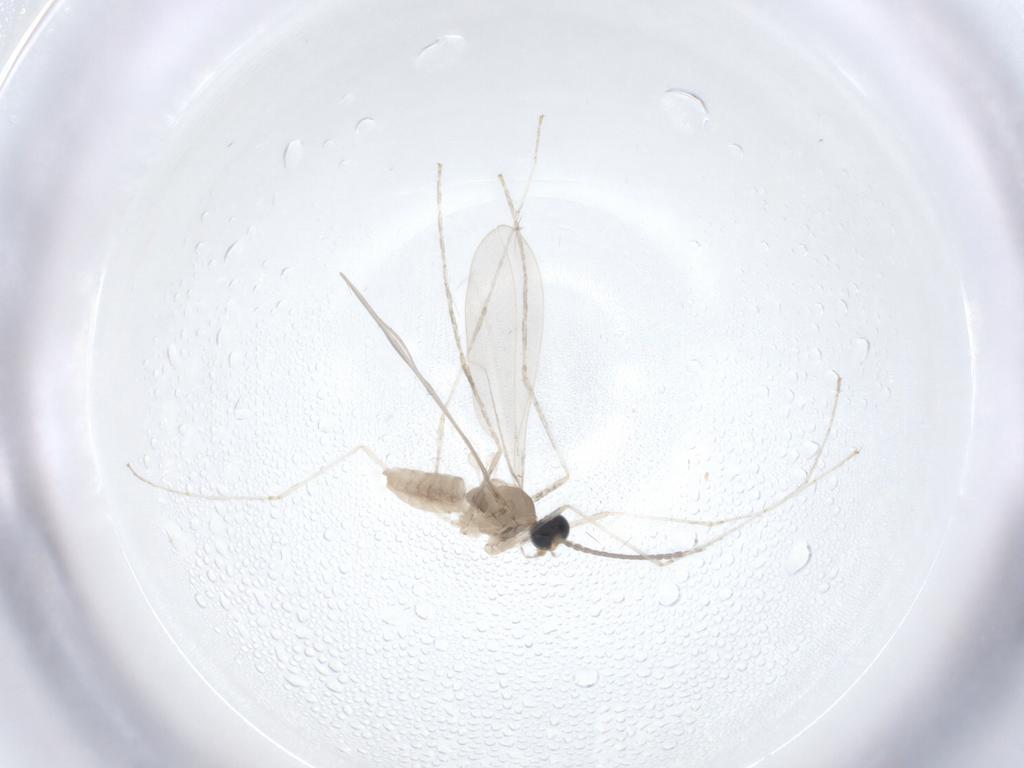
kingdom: Animalia
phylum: Arthropoda
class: Insecta
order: Diptera
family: Cecidomyiidae
